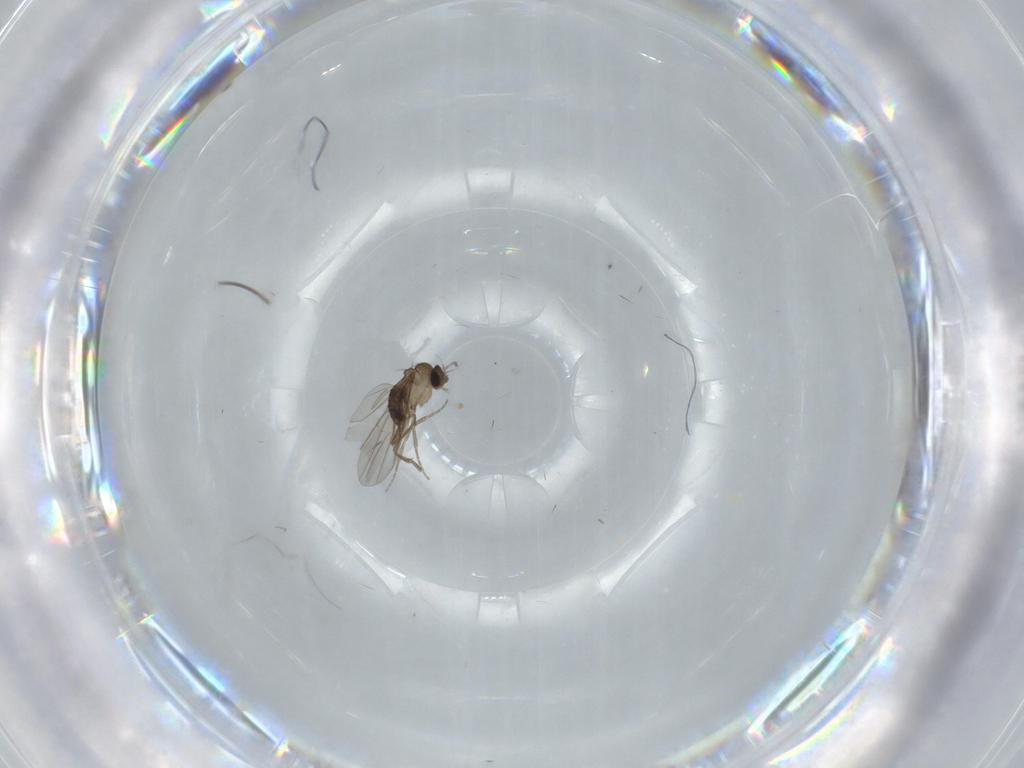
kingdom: Animalia
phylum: Arthropoda
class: Insecta
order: Diptera
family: Phoridae
